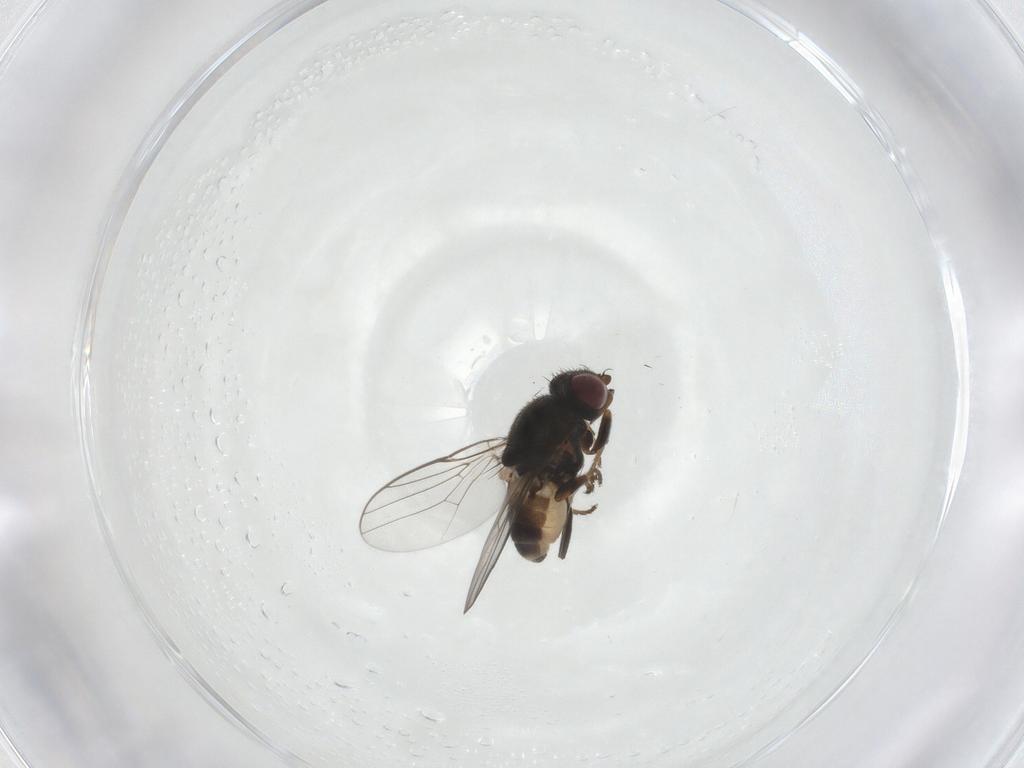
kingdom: Animalia
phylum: Arthropoda
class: Insecta
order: Diptera
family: Chloropidae
